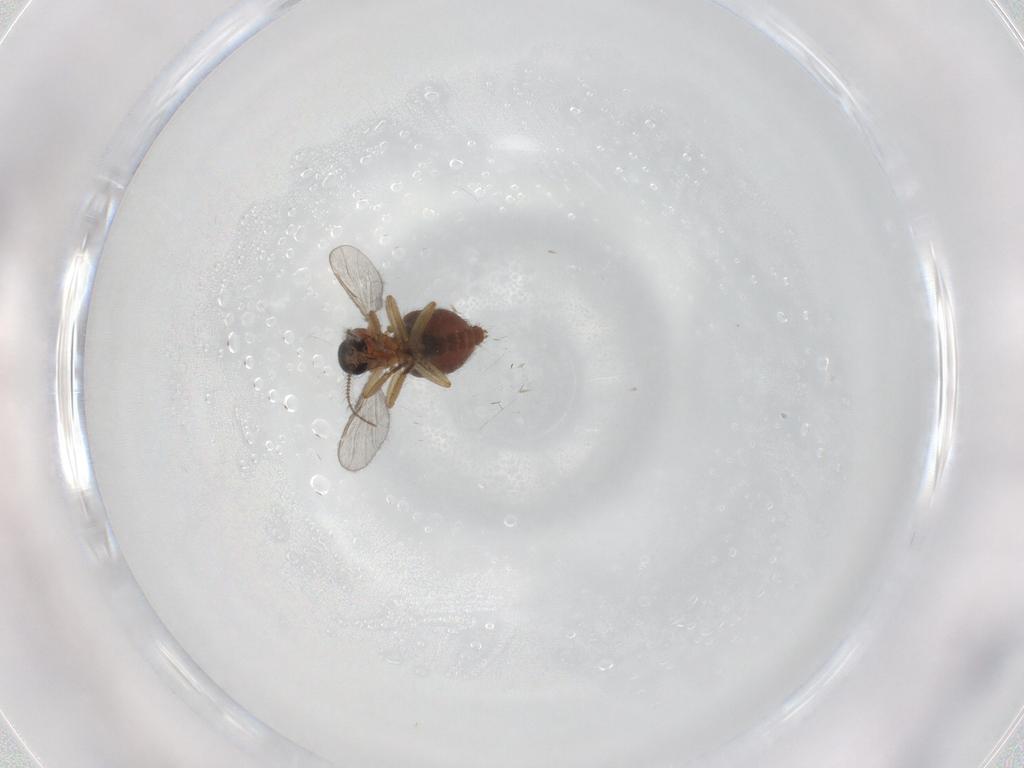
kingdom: Animalia
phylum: Arthropoda
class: Insecta
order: Diptera
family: Ceratopogonidae
